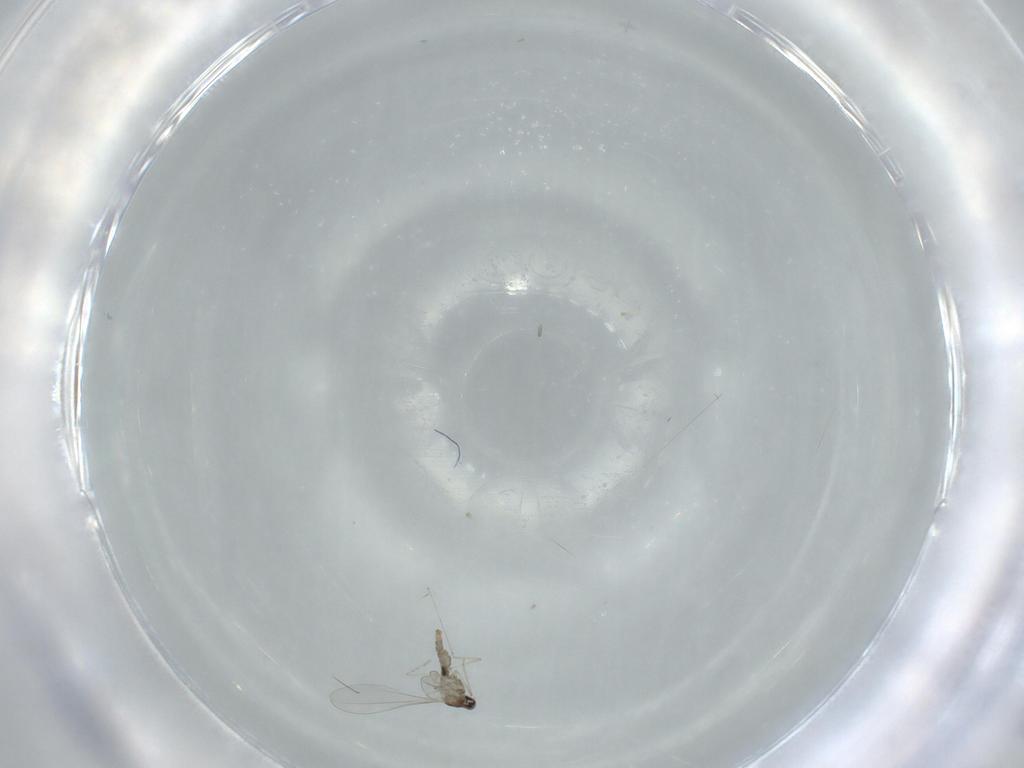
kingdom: Animalia
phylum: Arthropoda
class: Insecta
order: Diptera
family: Cecidomyiidae
